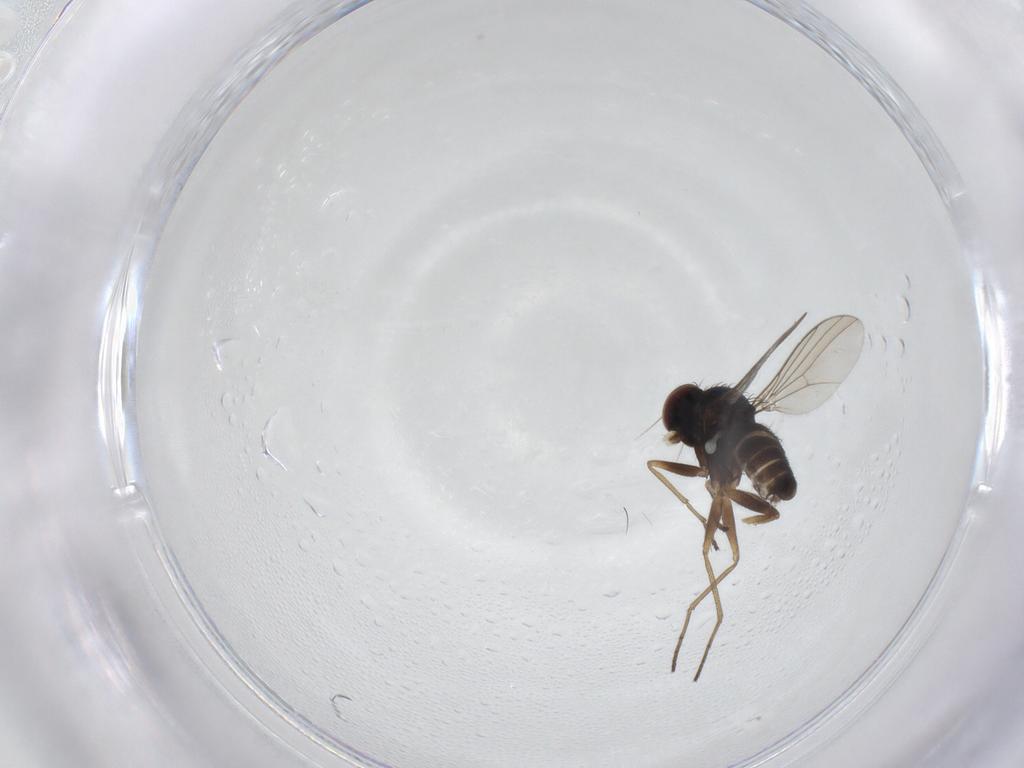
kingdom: Animalia
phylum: Arthropoda
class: Insecta
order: Diptera
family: Dolichopodidae
